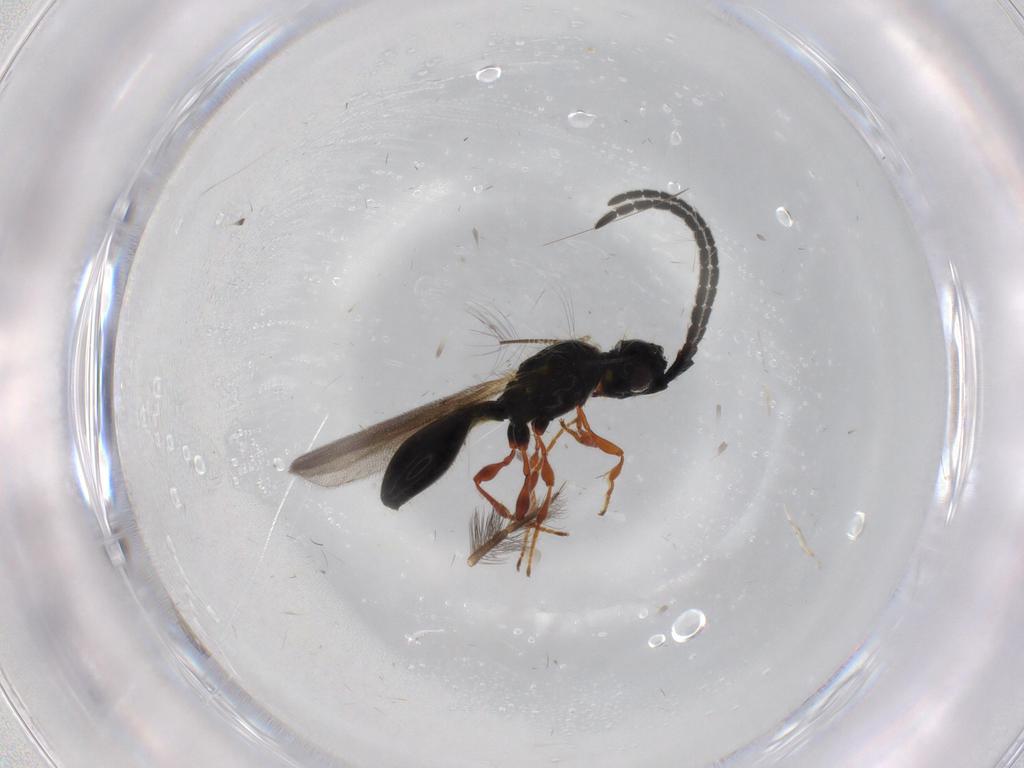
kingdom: Animalia
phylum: Arthropoda
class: Insecta
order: Hymenoptera
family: Diapriidae
